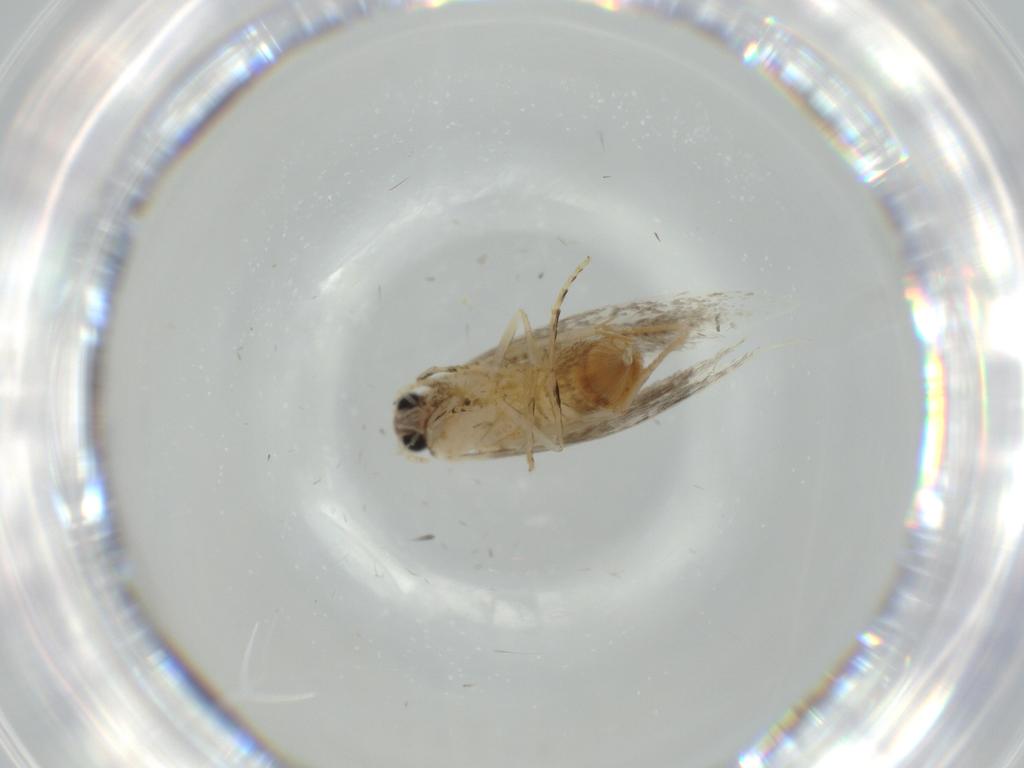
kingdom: Animalia
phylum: Arthropoda
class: Insecta
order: Lepidoptera
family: Tineidae
